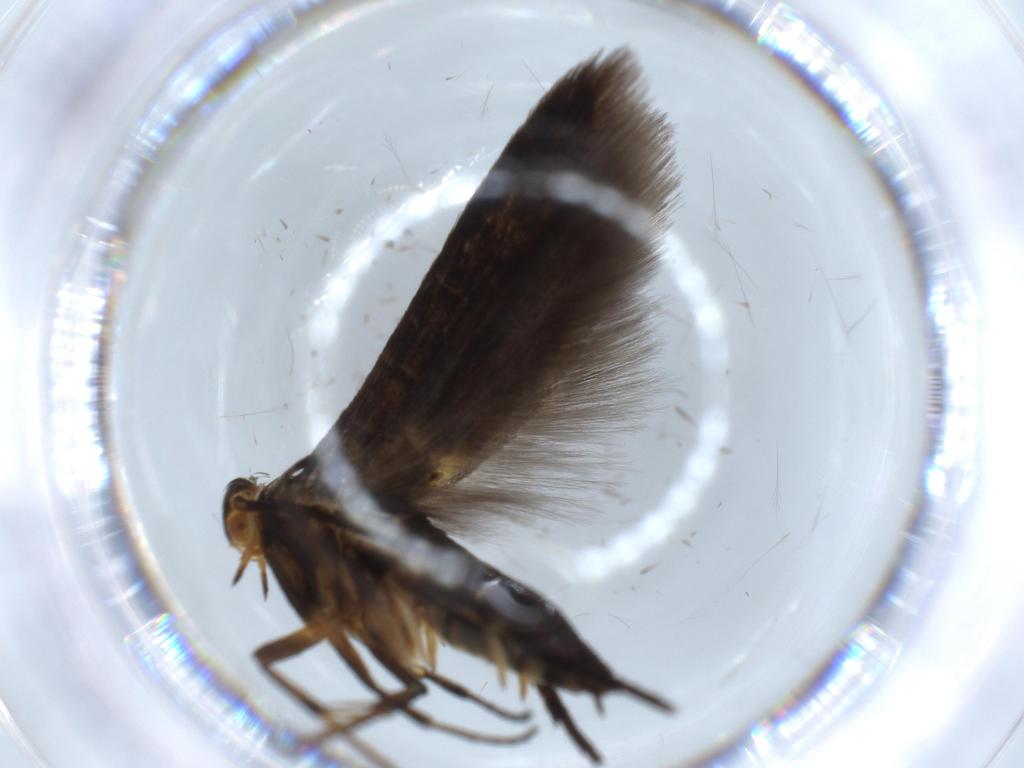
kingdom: Animalia
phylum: Arthropoda
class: Insecta
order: Lepidoptera
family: Heliodinidae
